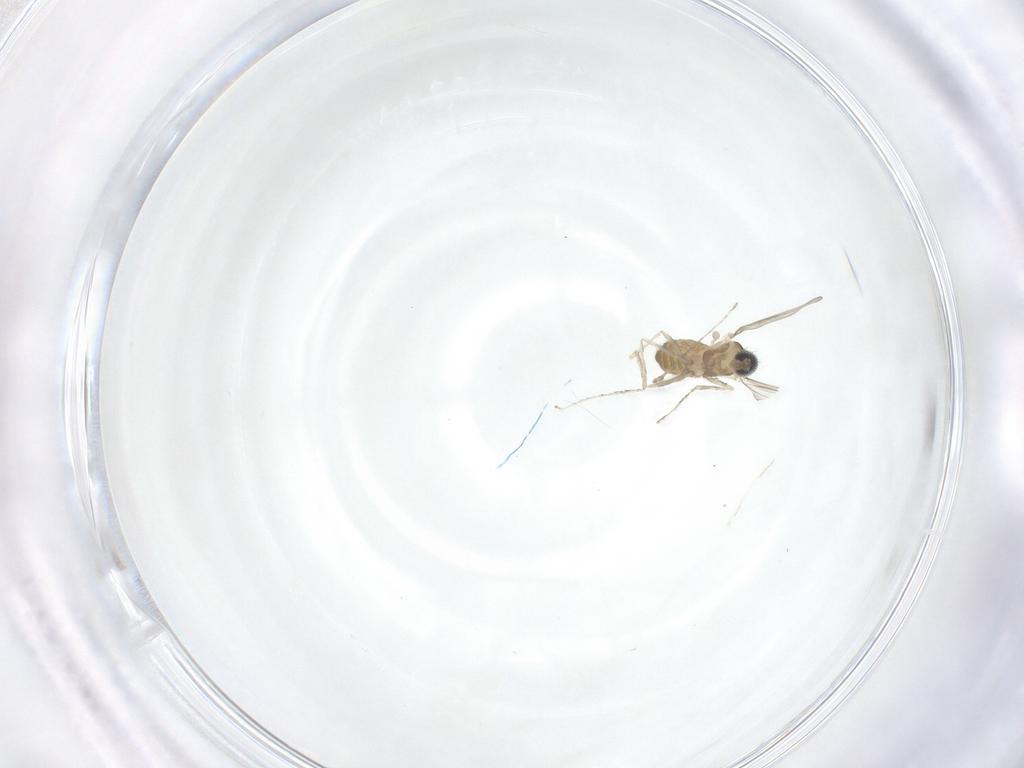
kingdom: Animalia
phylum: Arthropoda
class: Insecta
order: Diptera
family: Cecidomyiidae
